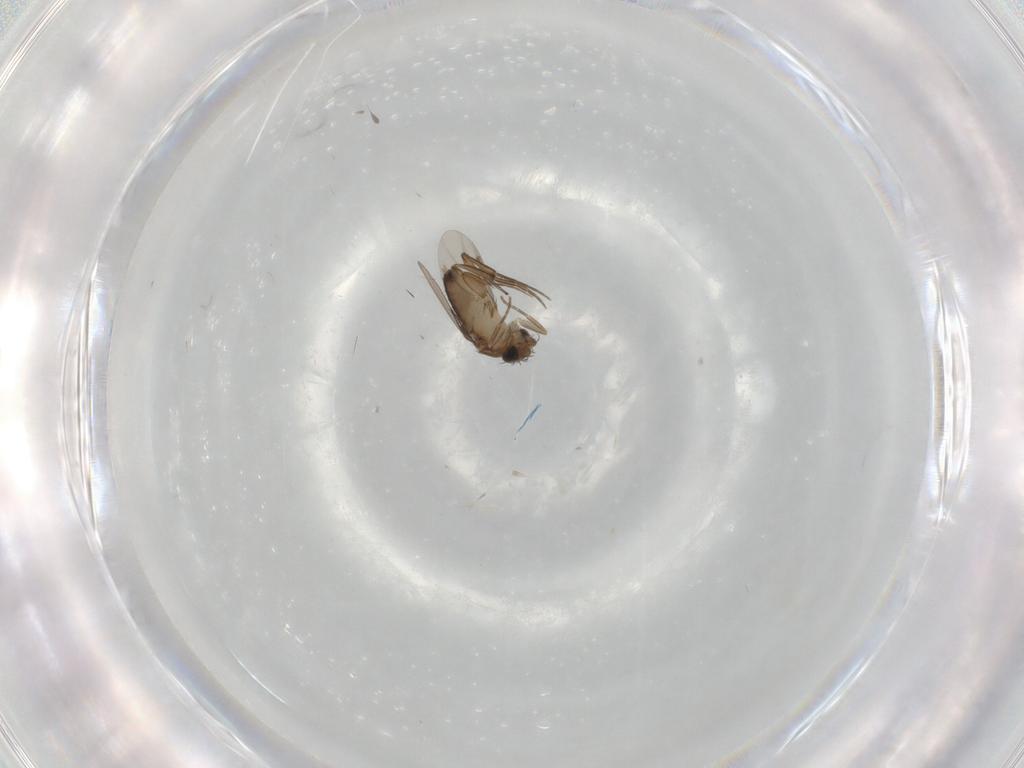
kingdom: Animalia
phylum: Arthropoda
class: Insecta
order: Diptera
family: Phoridae
